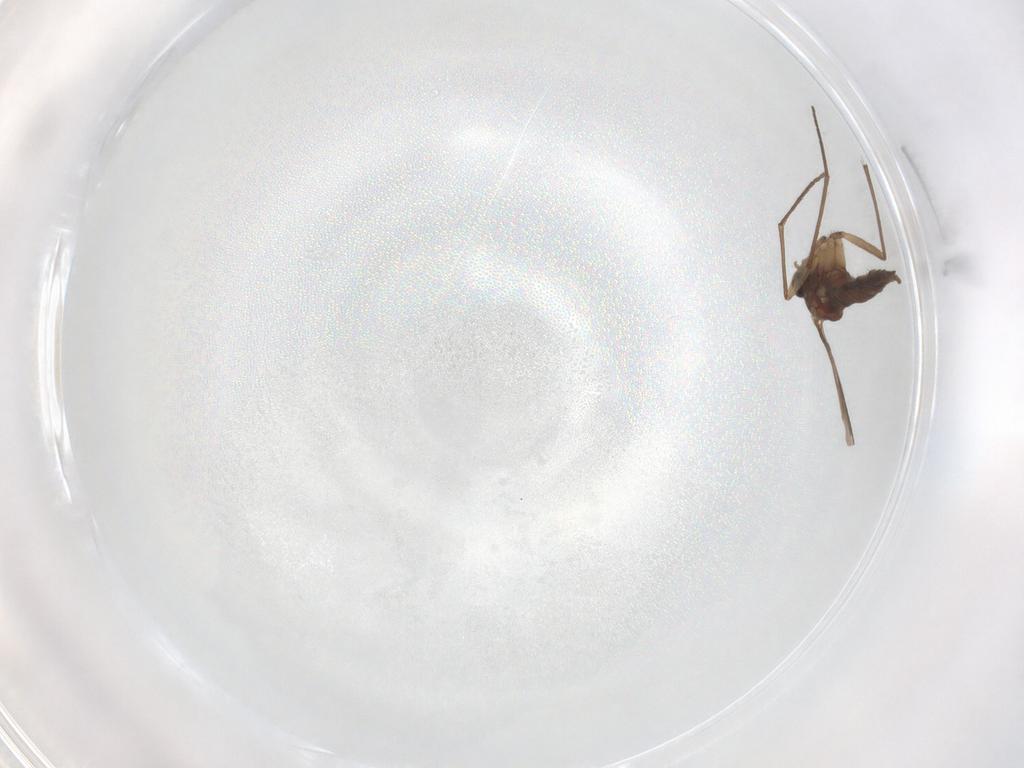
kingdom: Animalia
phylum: Arthropoda
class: Insecta
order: Diptera
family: Sciaridae
